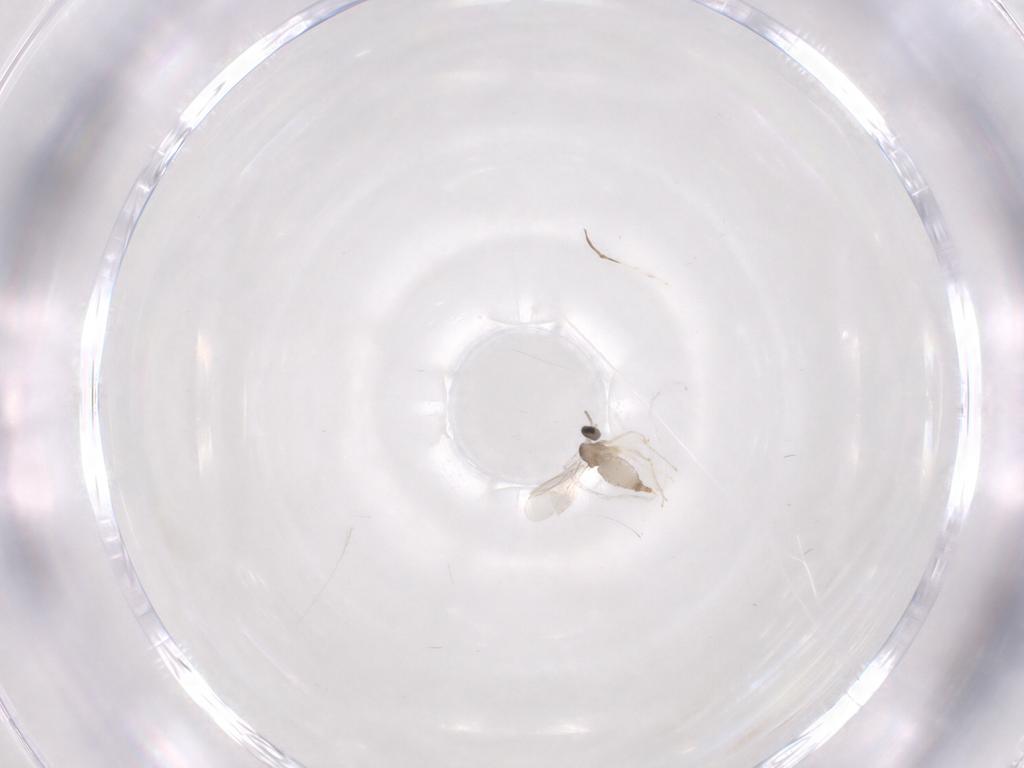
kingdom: Animalia
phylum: Arthropoda
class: Insecta
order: Diptera
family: Cecidomyiidae
